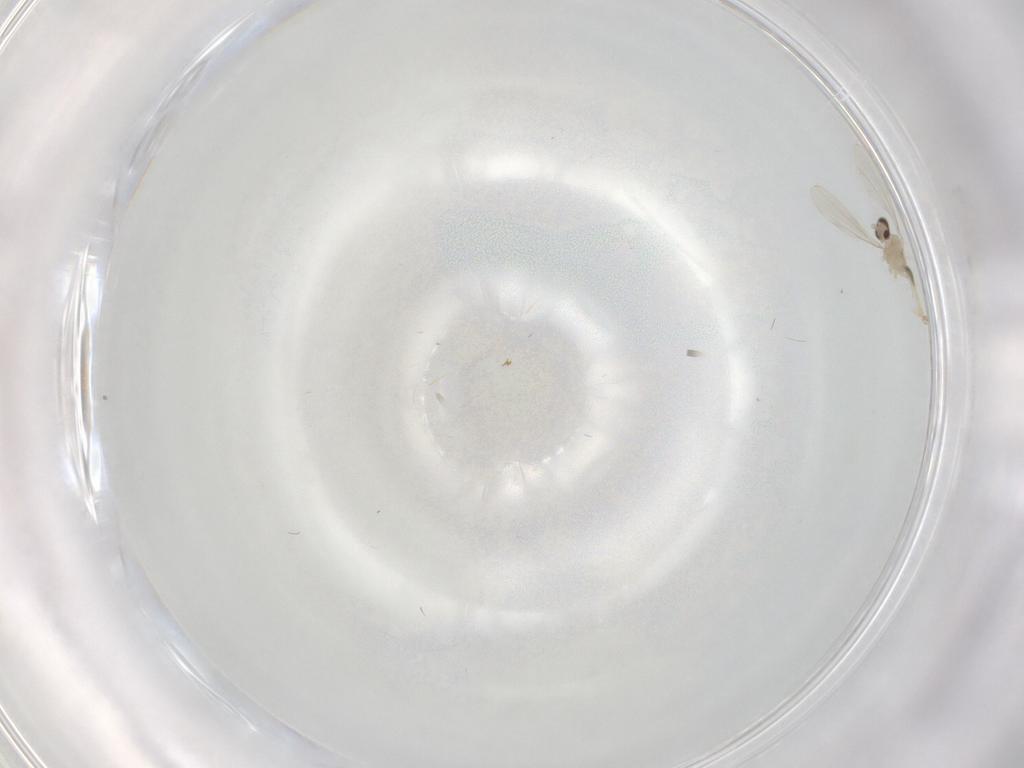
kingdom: Animalia
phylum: Arthropoda
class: Insecta
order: Diptera
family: Cecidomyiidae
